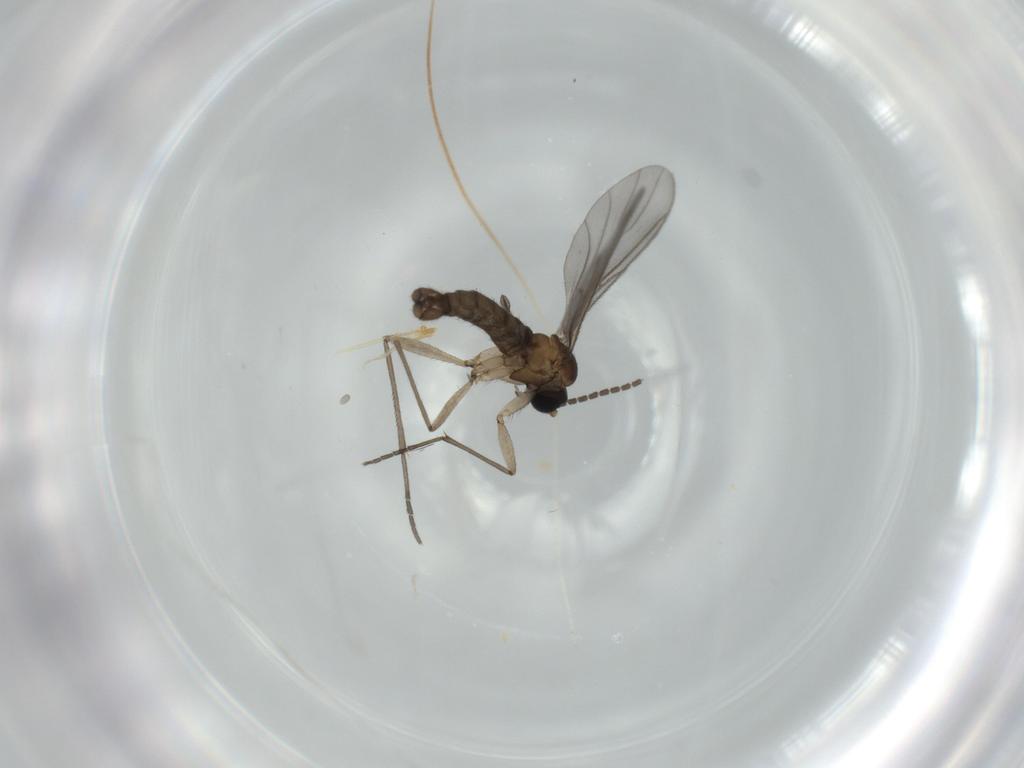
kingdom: Animalia
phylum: Arthropoda
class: Insecta
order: Diptera
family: Sciaridae
